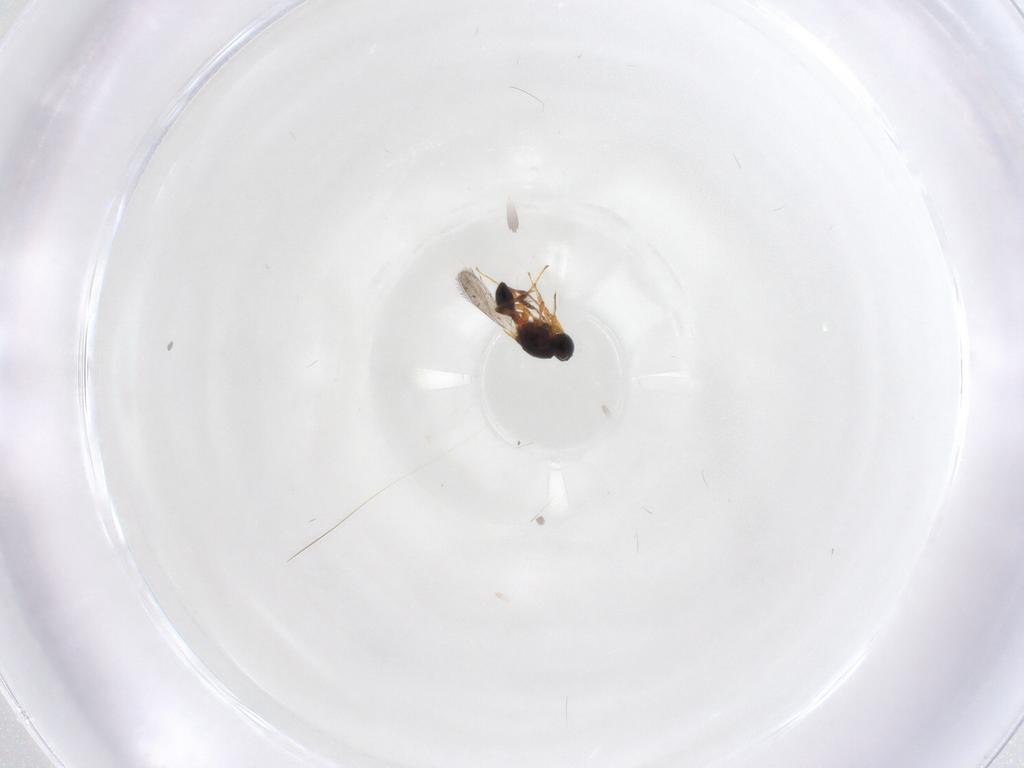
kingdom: Animalia
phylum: Arthropoda
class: Insecta
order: Hymenoptera
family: Platygastridae
